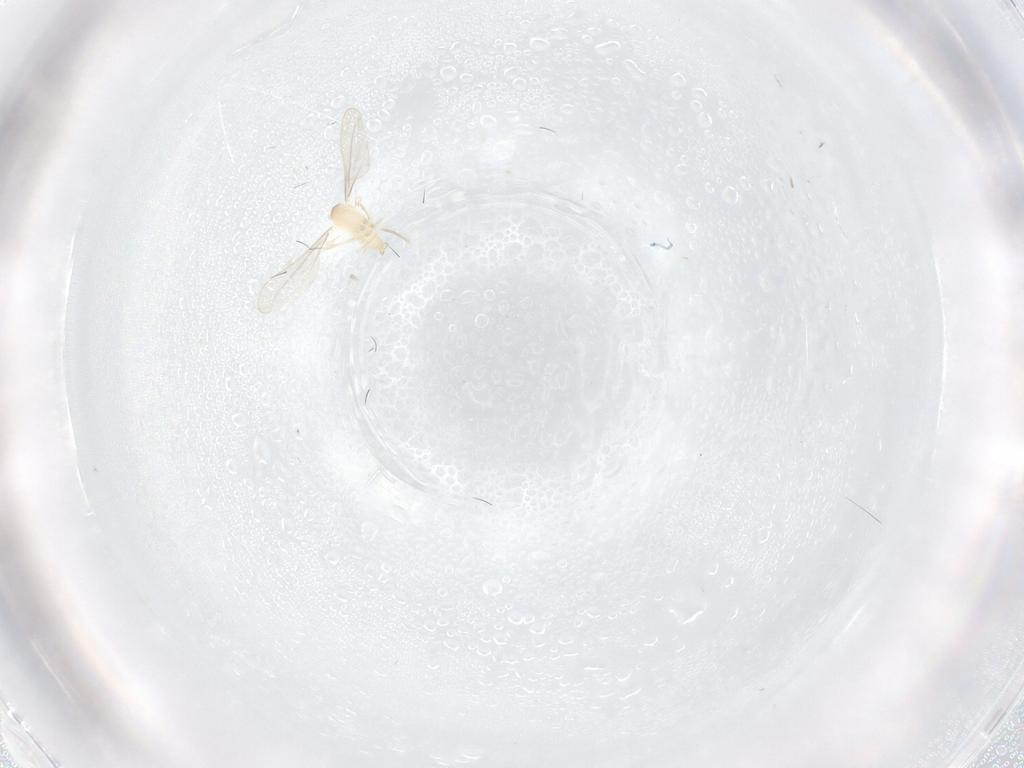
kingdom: Animalia
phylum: Arthropoda
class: Insecta
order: Diptera
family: Cecidomyiidae
